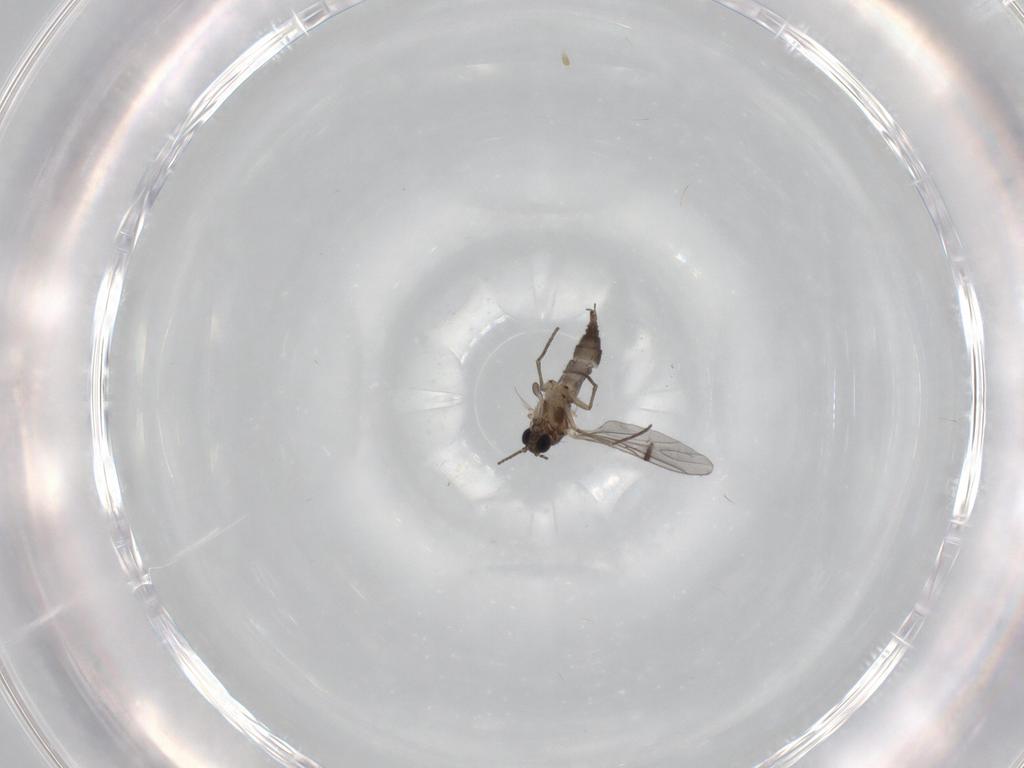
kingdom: Animalia
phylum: Arthropoda
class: Insecta
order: Diptera
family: Sciaridae
